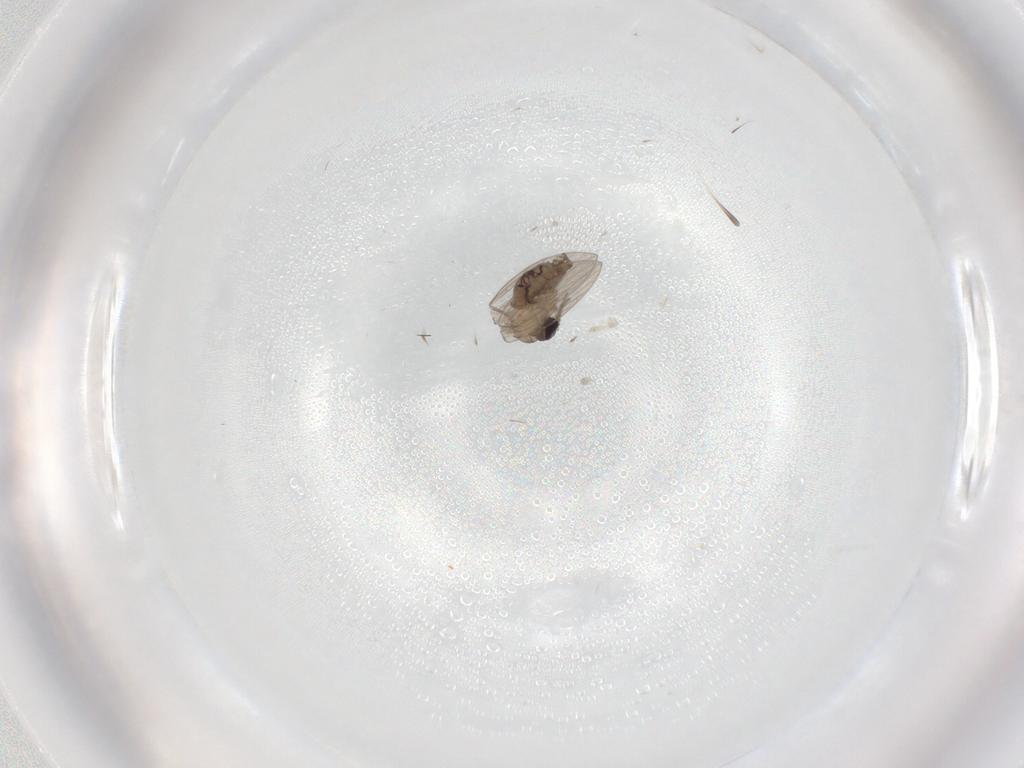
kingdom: Animalia
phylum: Arthropoda
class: Insecta
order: Diptera
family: Psychodidae
